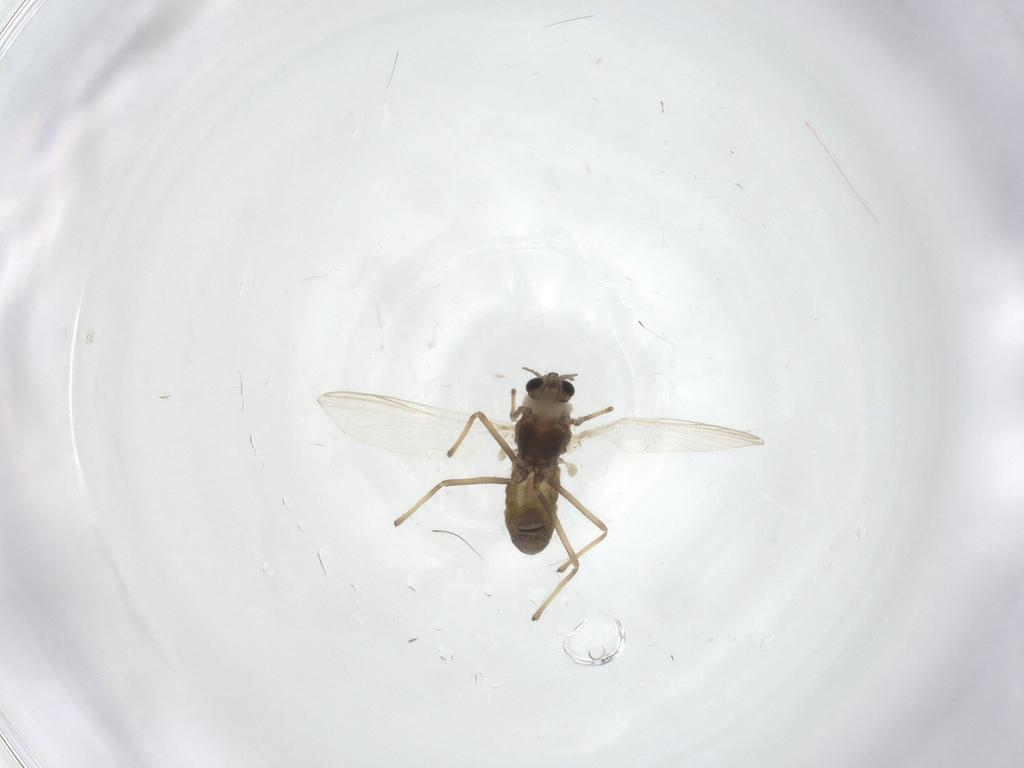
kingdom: Animalia
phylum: Arthropoda
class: Insecta
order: Diptera
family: Chironomidae
